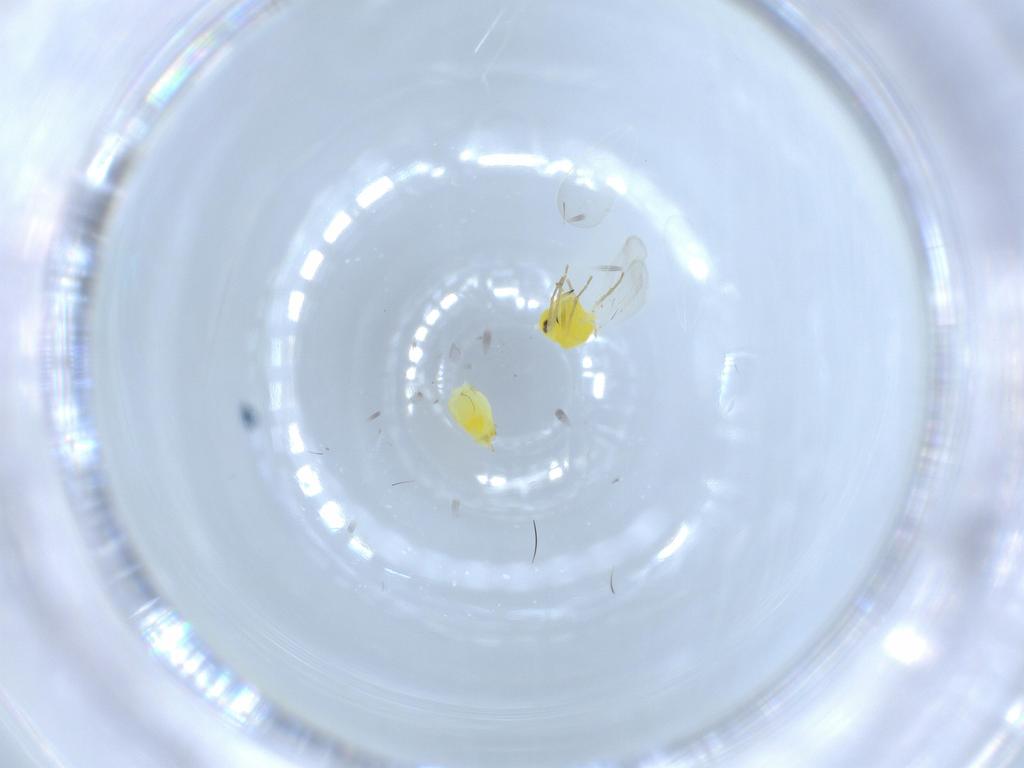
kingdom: Animalia
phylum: Arthropoda
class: Insecta
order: Hemiptera
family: Aleyrodidae
